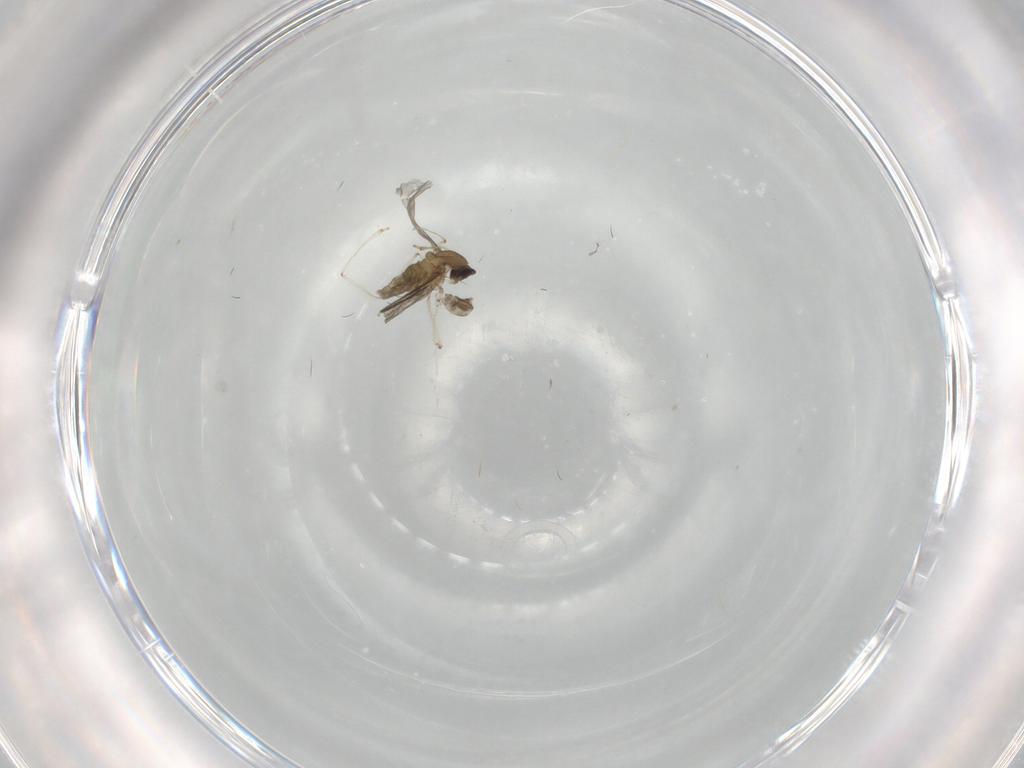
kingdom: Animalia
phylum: Arthropoda
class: Insecta
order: Diptera
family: Cecidomyiidae
